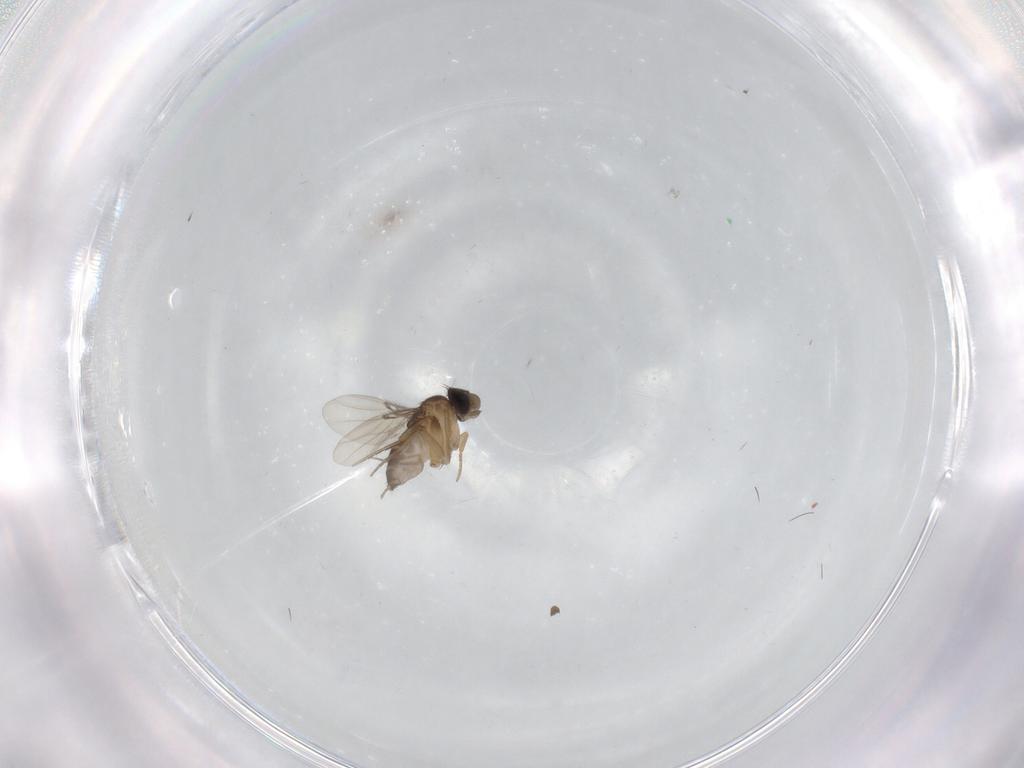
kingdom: Animalia
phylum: Arthropoda
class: Insecta
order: Diptera
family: Phoridae
